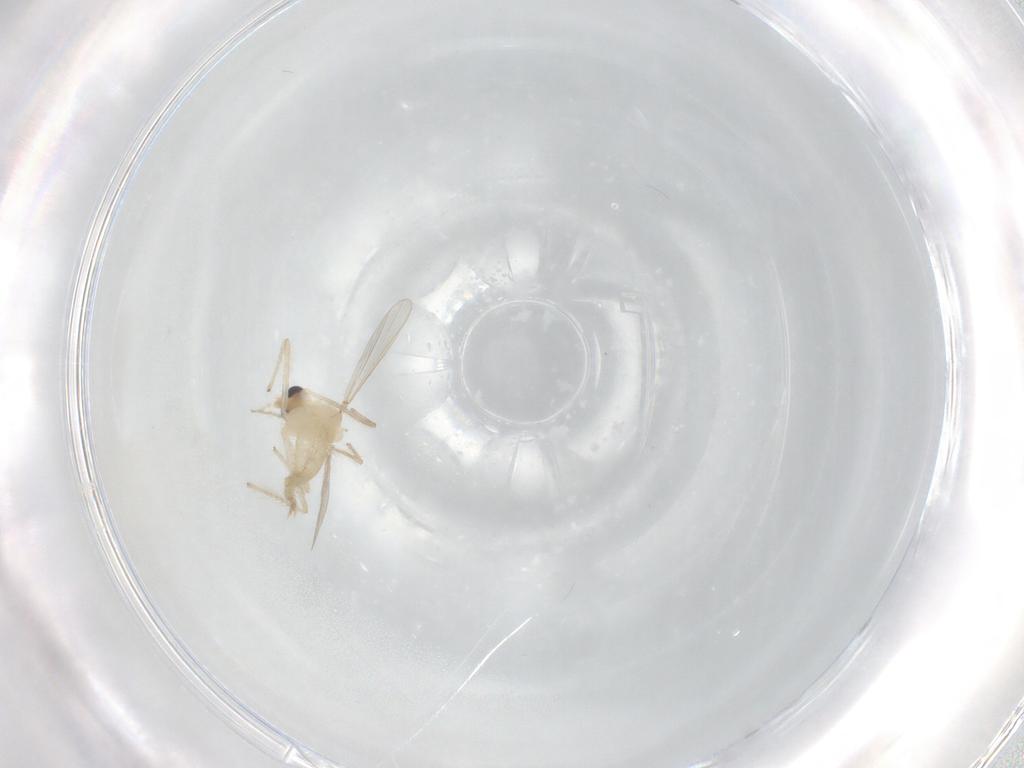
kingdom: Animalia
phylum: Arthropoda
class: Insecta
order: Diptera
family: Chironomidae
